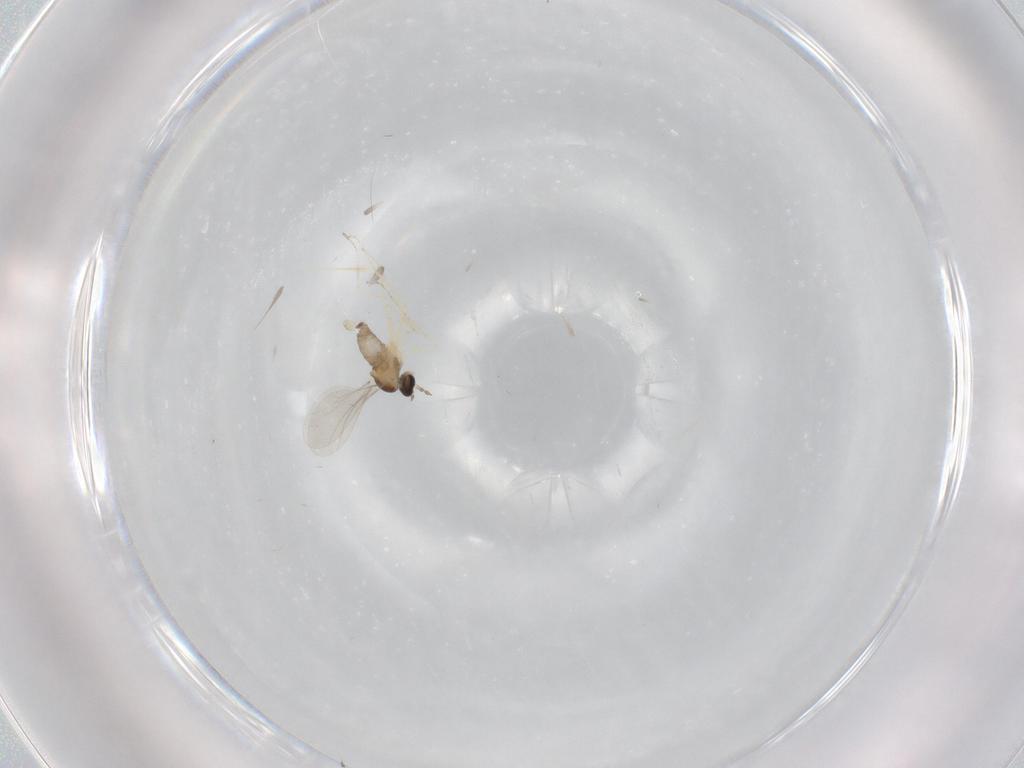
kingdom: Animalia
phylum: Arthropoda
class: Insecta
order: Diptera
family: Cecidomyiidae
